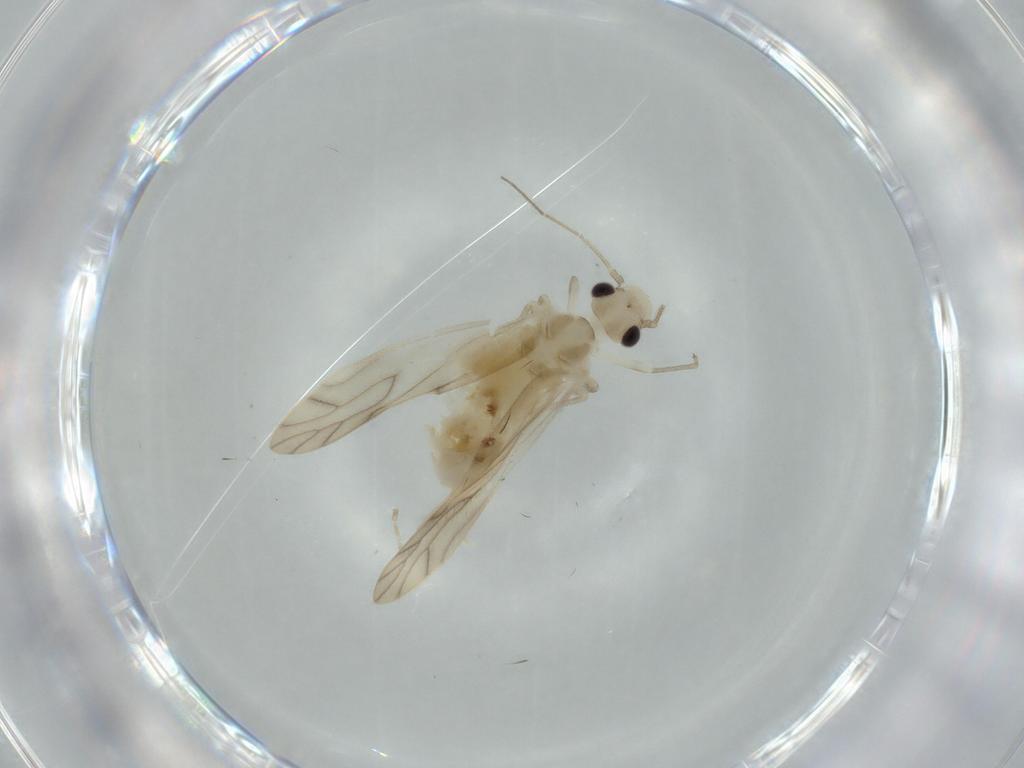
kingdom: Animalia
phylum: Arthropoda
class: Insecta
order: Psocodea
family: Caeciliusidae
